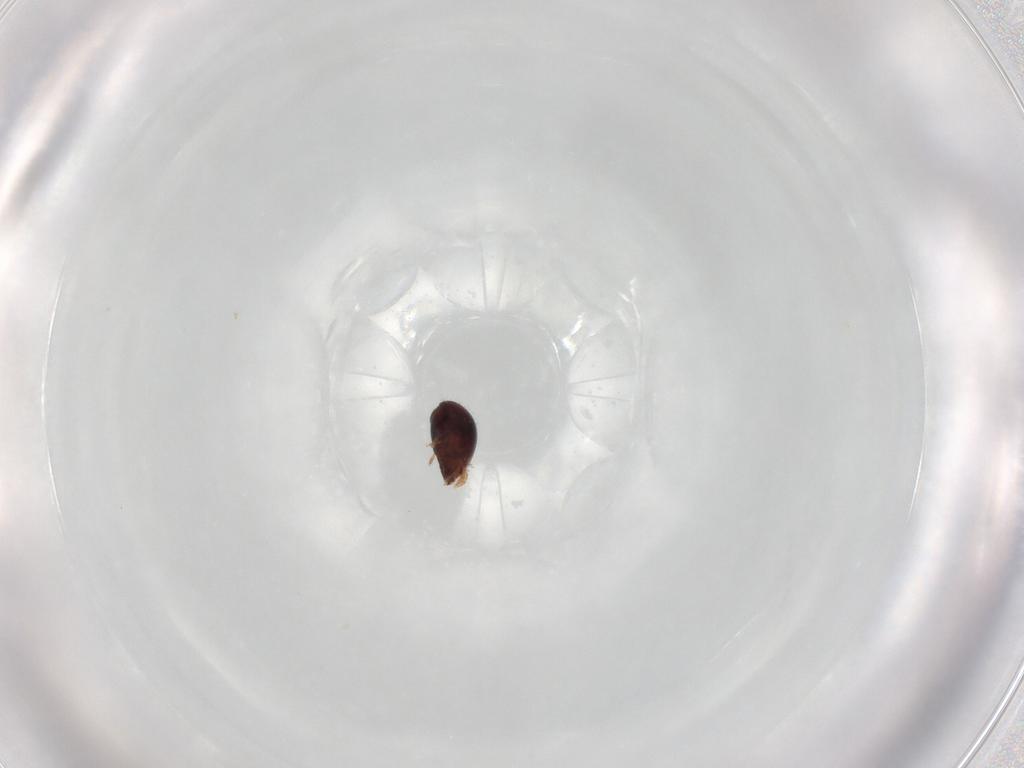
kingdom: Animalia
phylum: Arthropoda
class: Arachnida
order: Sarcoptiformes
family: Humerobatidae
